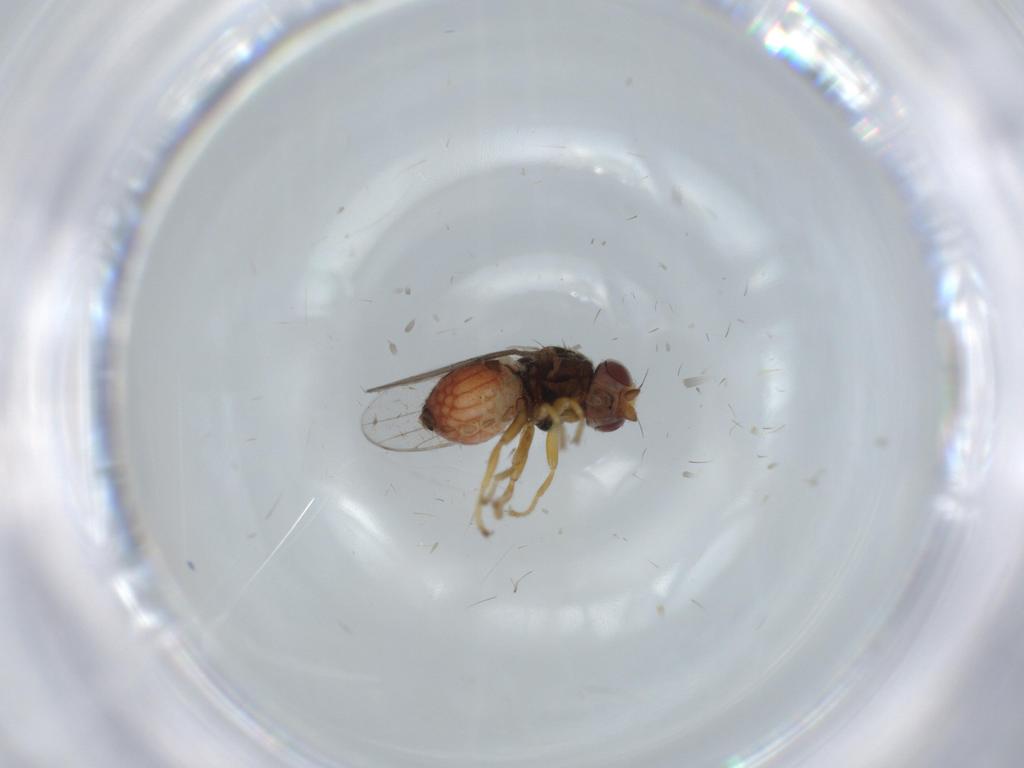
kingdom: Animalia
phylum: Arthropoda
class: Insecta
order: Diptera
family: Chloropidae
